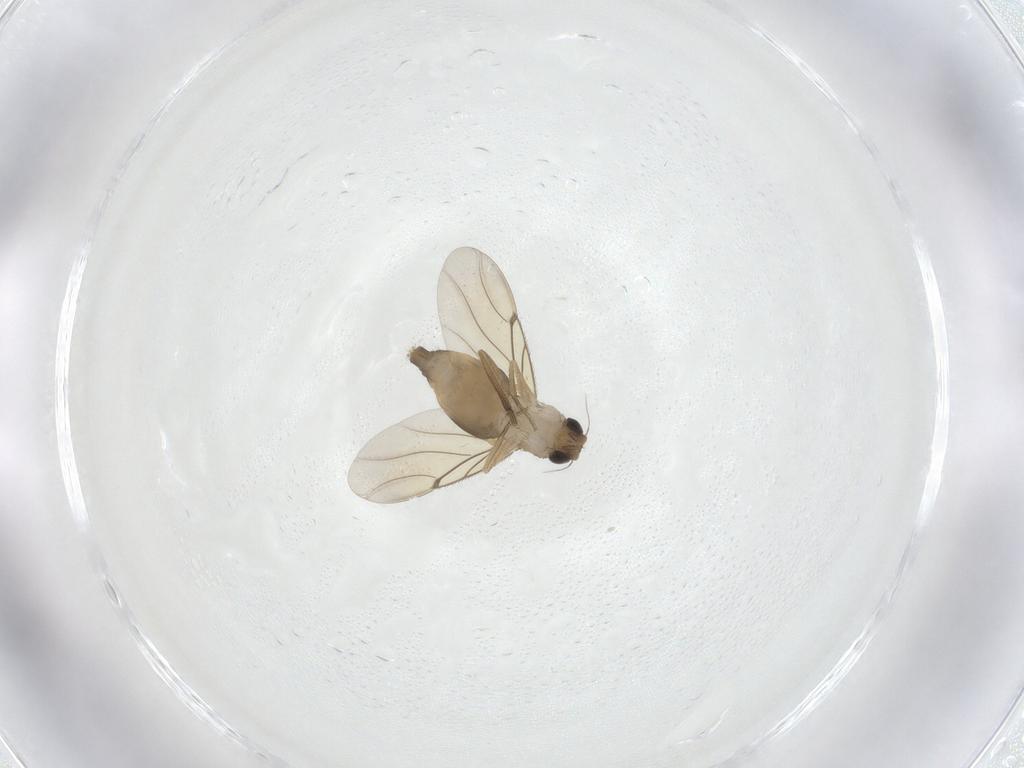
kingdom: Animalia
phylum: Arthropoda
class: Insecta
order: Diptera
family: Phoridae
